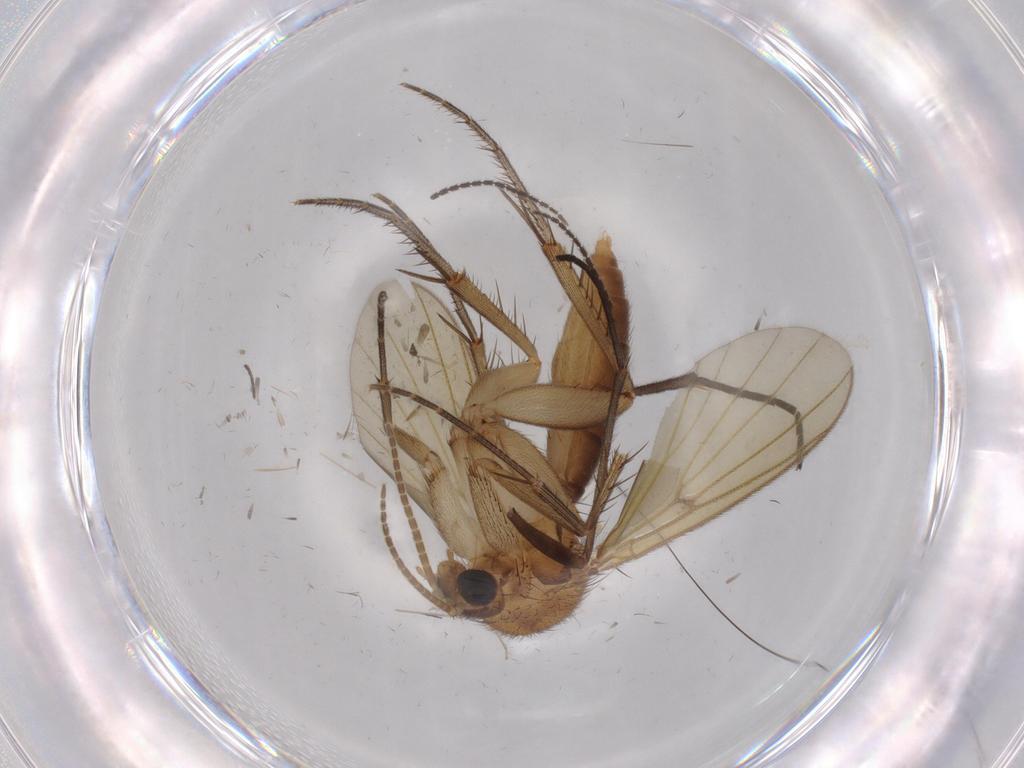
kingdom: Animalia
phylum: Arthropoda
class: Insecta
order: Diptera
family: Mycetophilidae
